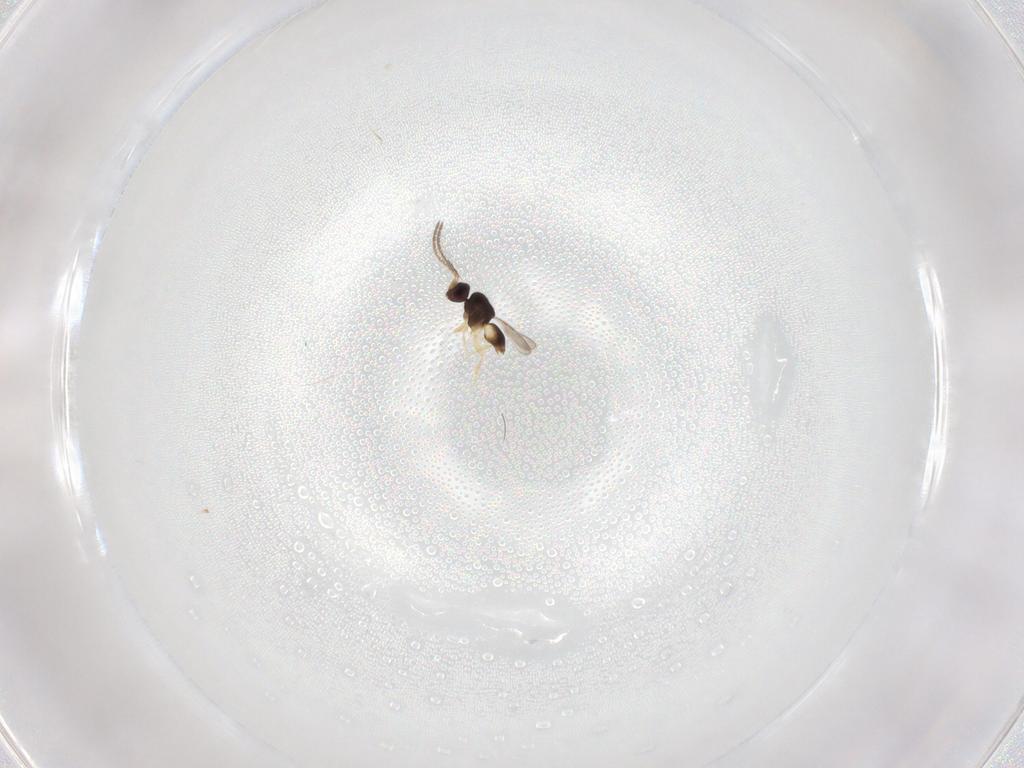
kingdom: Animalia
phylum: Arthropoda
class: Insecta
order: Hymenoptera
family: Ceraphronidae
